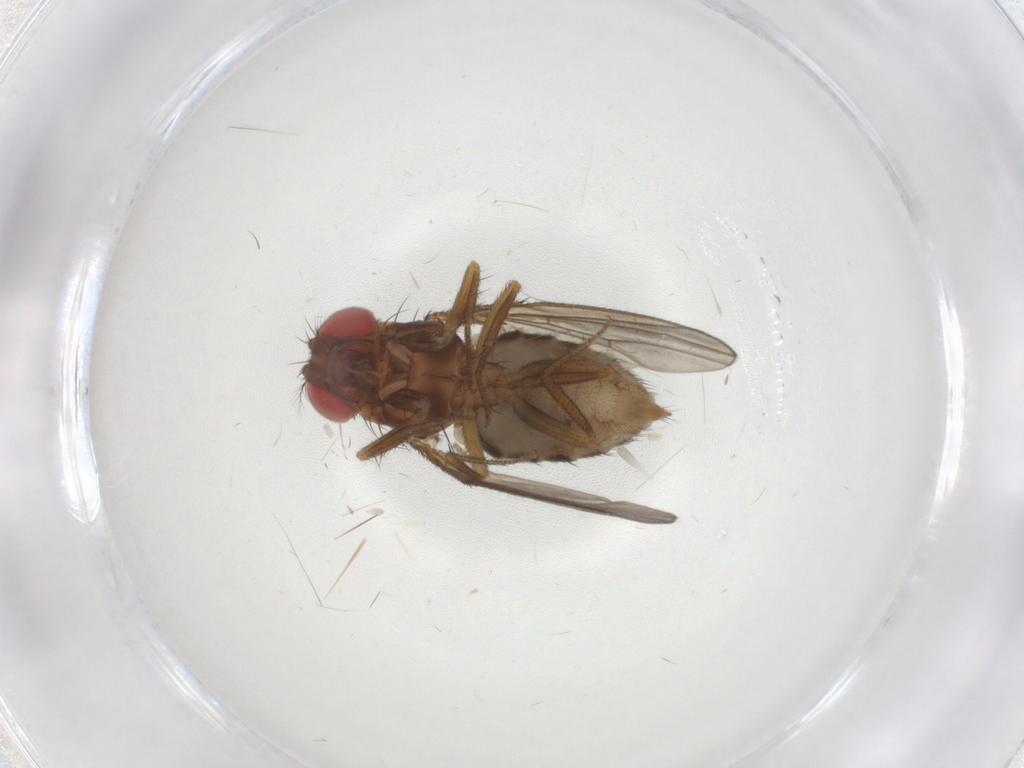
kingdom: Animalia
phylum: Arthropoda
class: Insecta
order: Diptera
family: Drosophilidae
